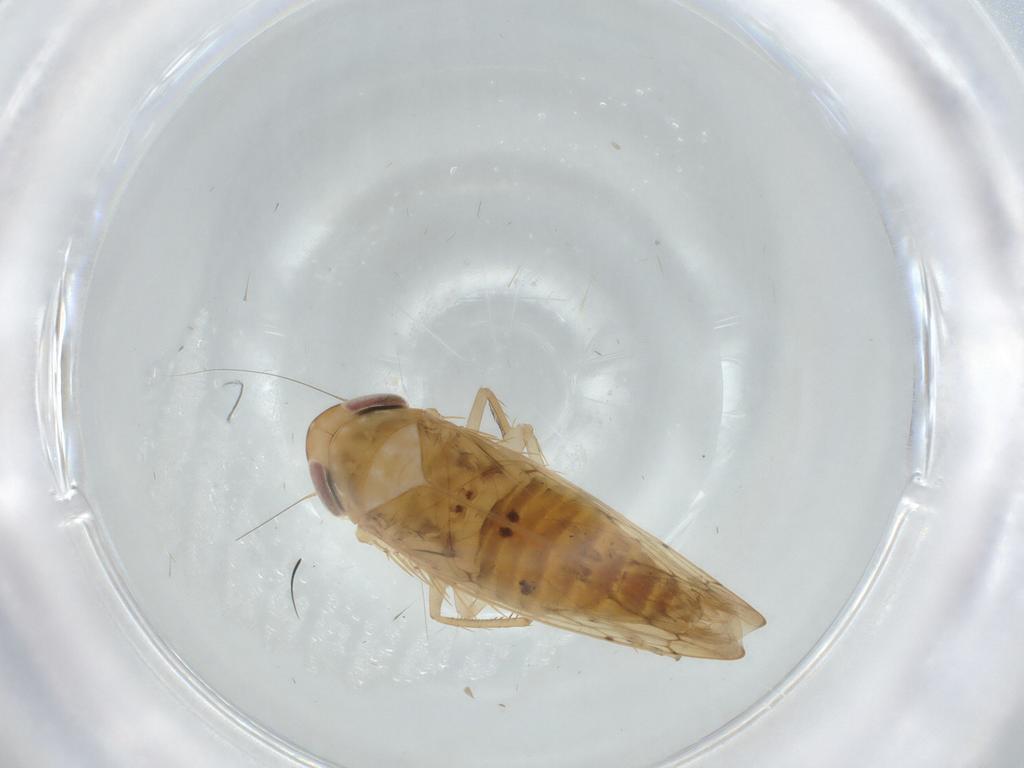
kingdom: Animalia
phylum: Arthropoda
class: Insecta
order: Hemiptera
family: Cicadellidae
